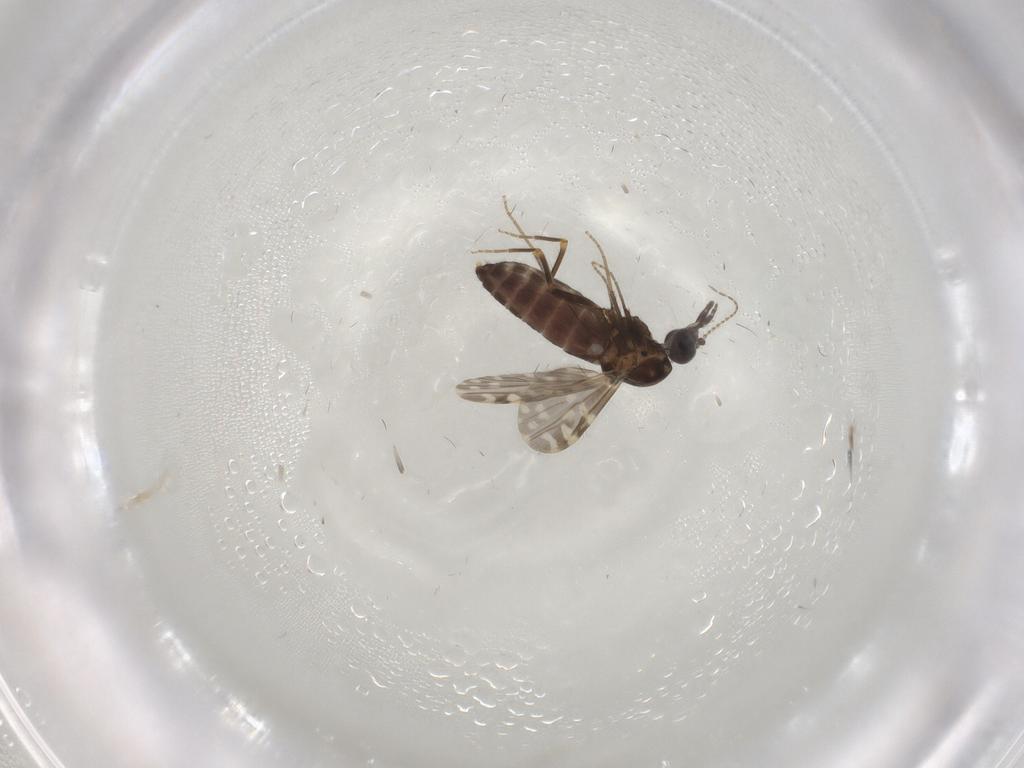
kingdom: Animalia
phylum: Arthropoda
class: Insecta
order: Diptera
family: Ceratopogonidae
